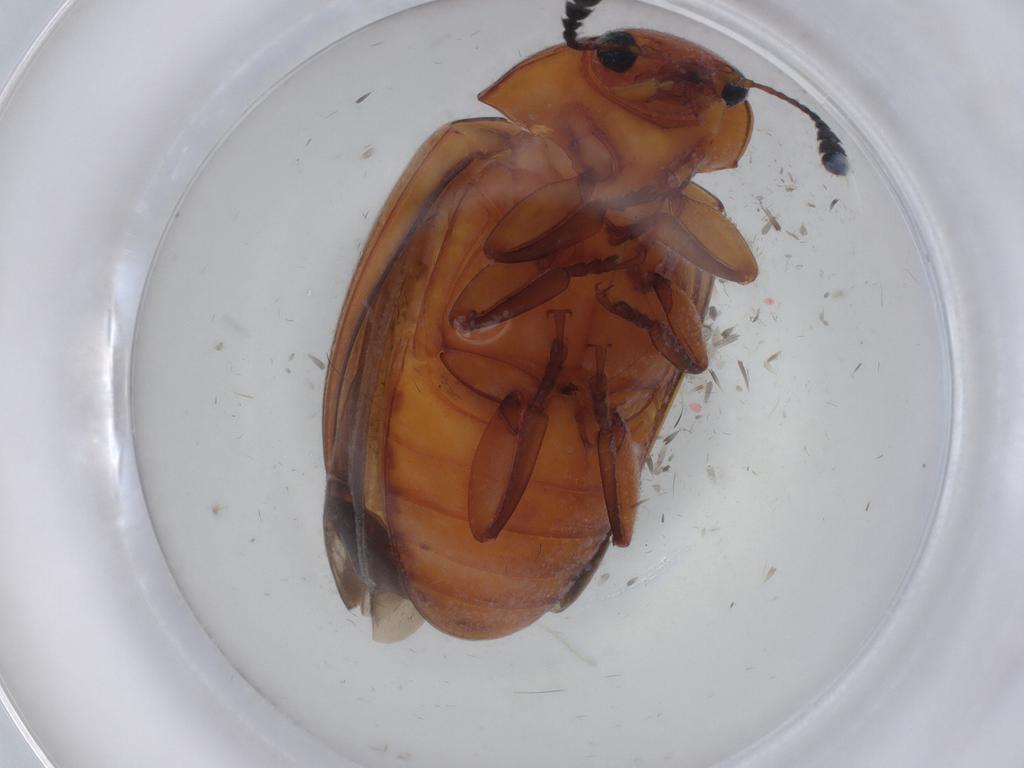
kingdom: Animalia
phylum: Arthropoda
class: Insecta
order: Coleoptera
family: Erotylidae
